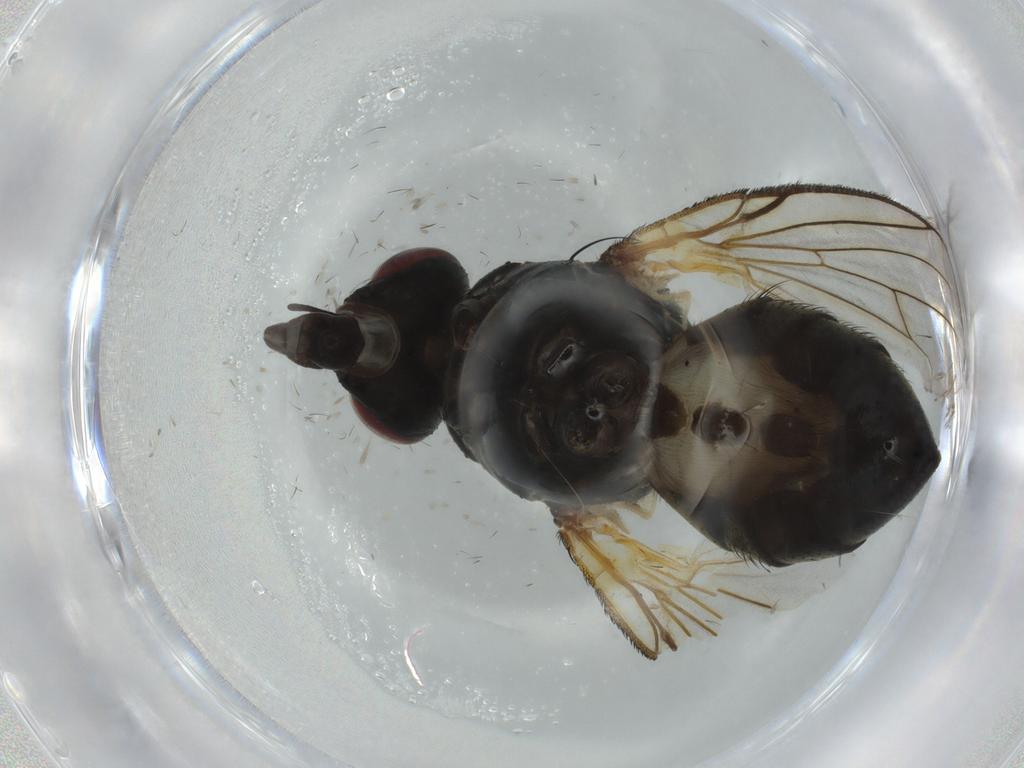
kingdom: Animalia
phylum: Arthropoda
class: Insecta
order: Diptera
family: Muscidae
